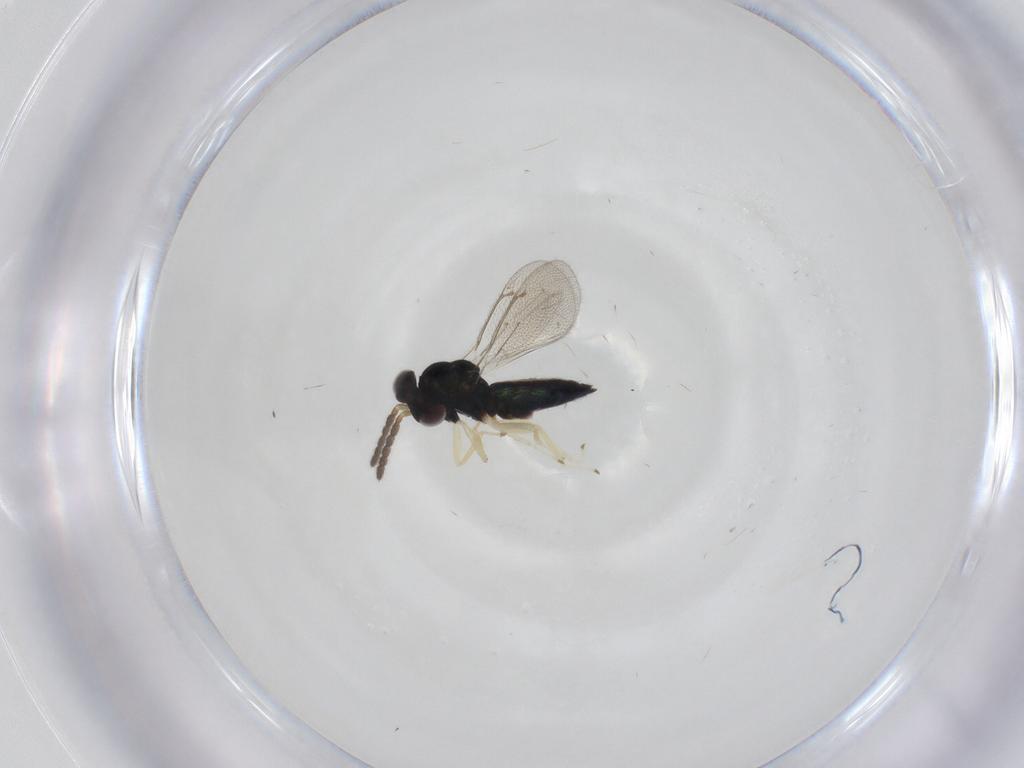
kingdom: Animalia
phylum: Arthropoda
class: Insecta
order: Hymenoptera
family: Eulophidae
